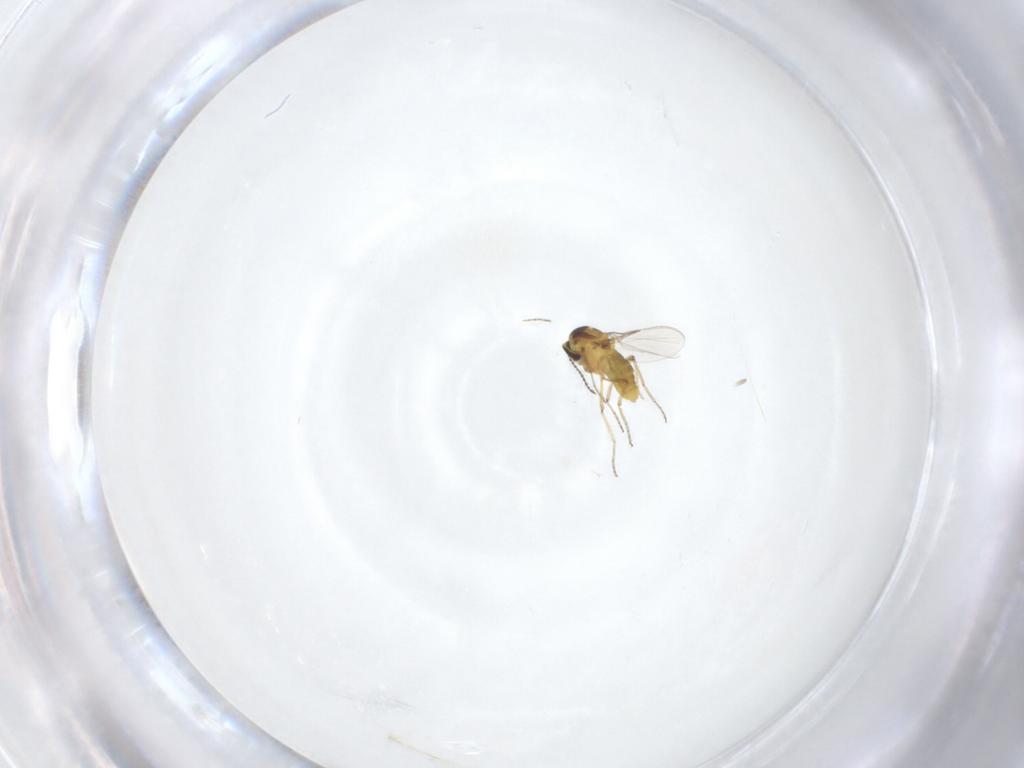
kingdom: Animalia
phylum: Arthropoda
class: Insecta
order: Diptera
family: Ceratopogonidae
